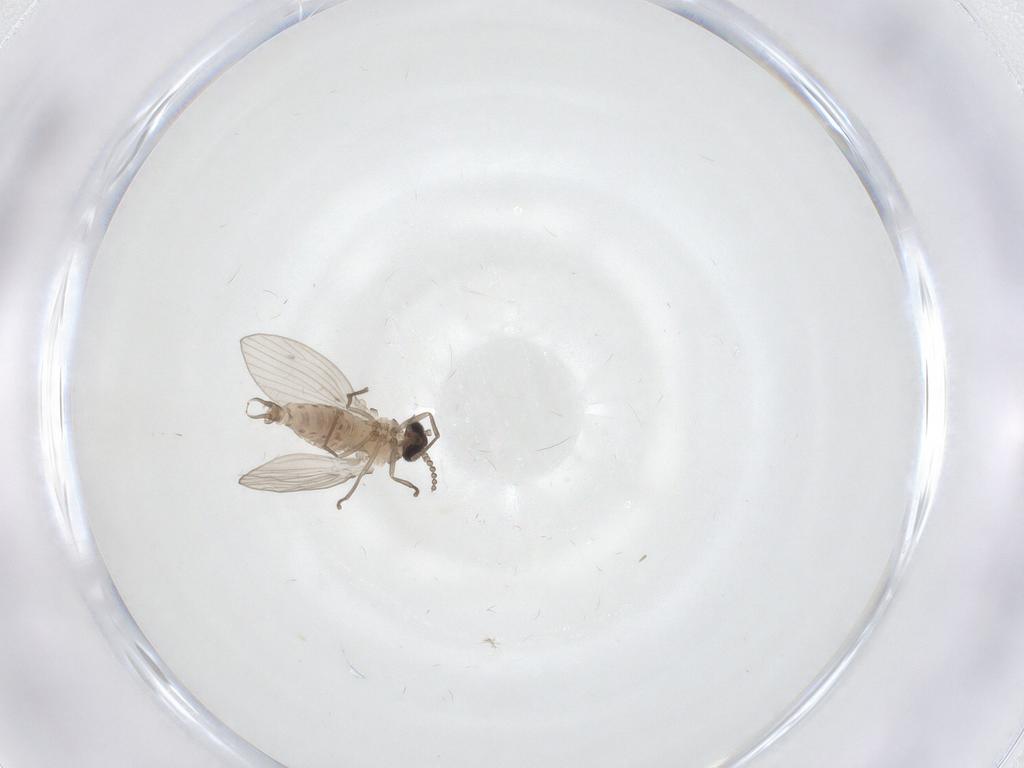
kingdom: Animalia
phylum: Arthropoda
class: Insecta
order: Diptera
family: Psychodidae
